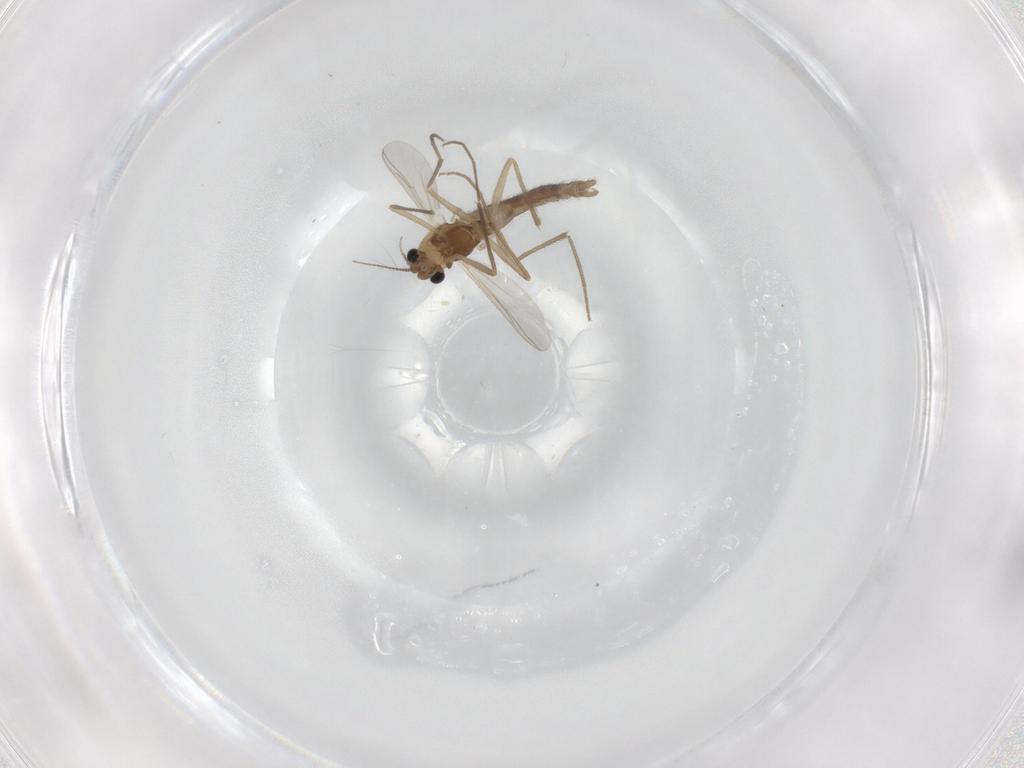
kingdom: Animalia
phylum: Arthropoda
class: Insecta
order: Diptera
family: Chironomidae
